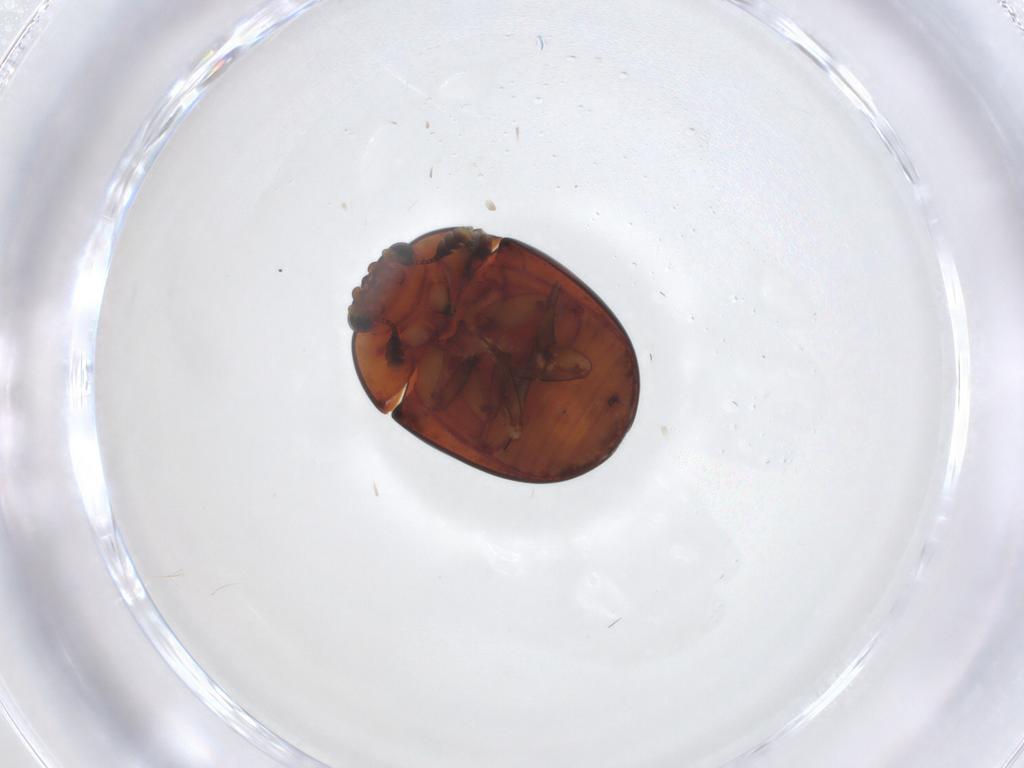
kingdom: Animalia
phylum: Arthropoda
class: Insecta
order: Coleoptera
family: Nitidulidae
